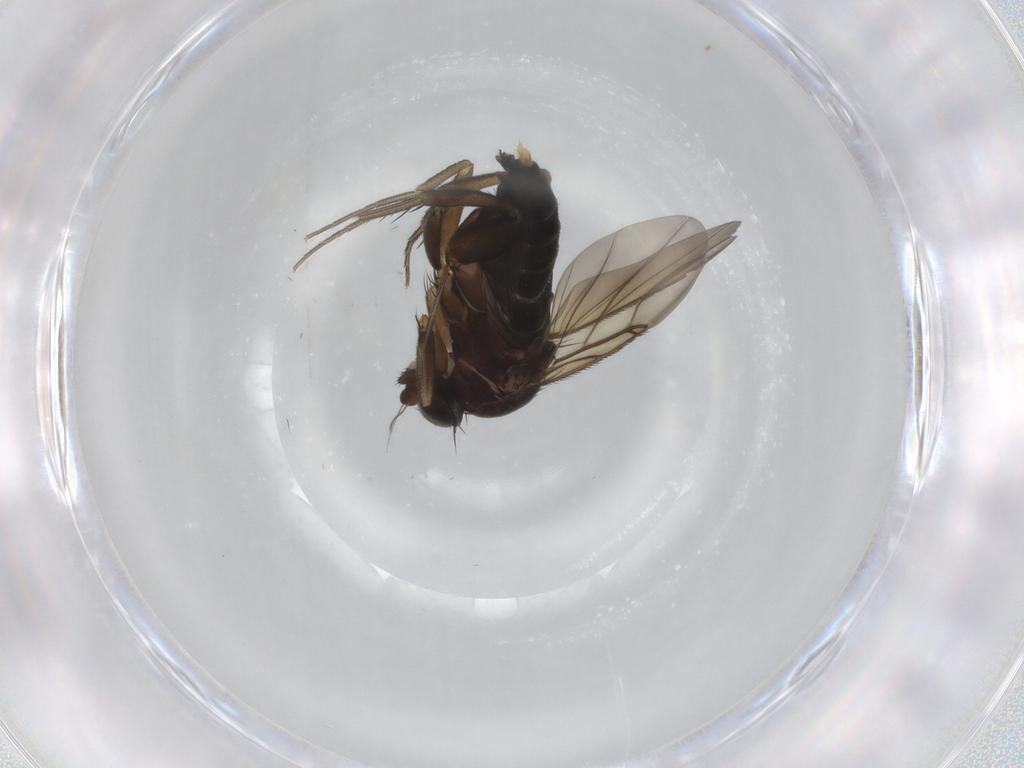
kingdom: Animalia
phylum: Arthropoda
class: Insecta
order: Diptera
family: Phoridae
